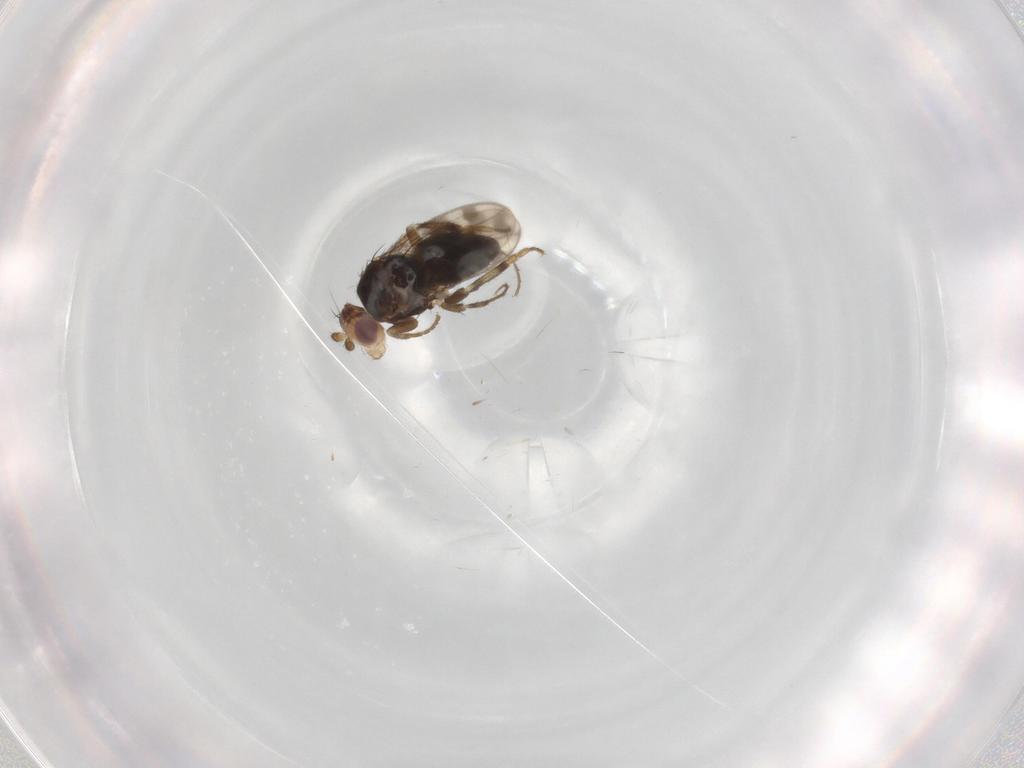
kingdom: Animalia
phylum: Arthropoda
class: Insecta
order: Diptera
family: Sphaeroceridae
